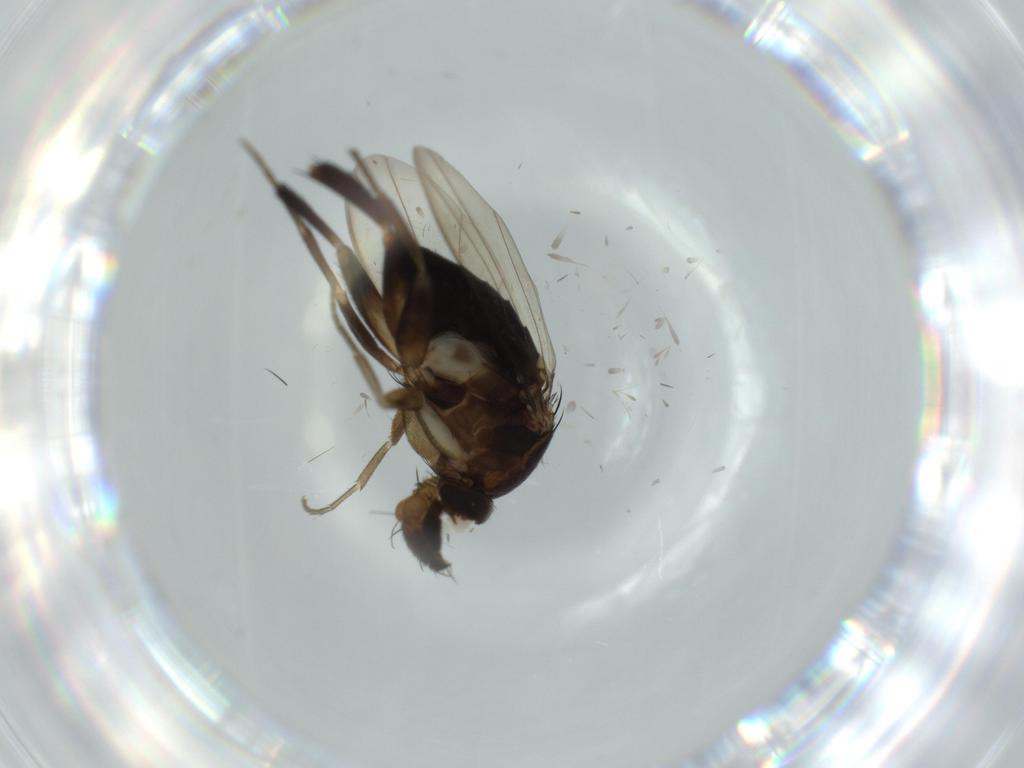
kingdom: Animalia
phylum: Arthropoda
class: Insecta
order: Diptera
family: Phoridae
